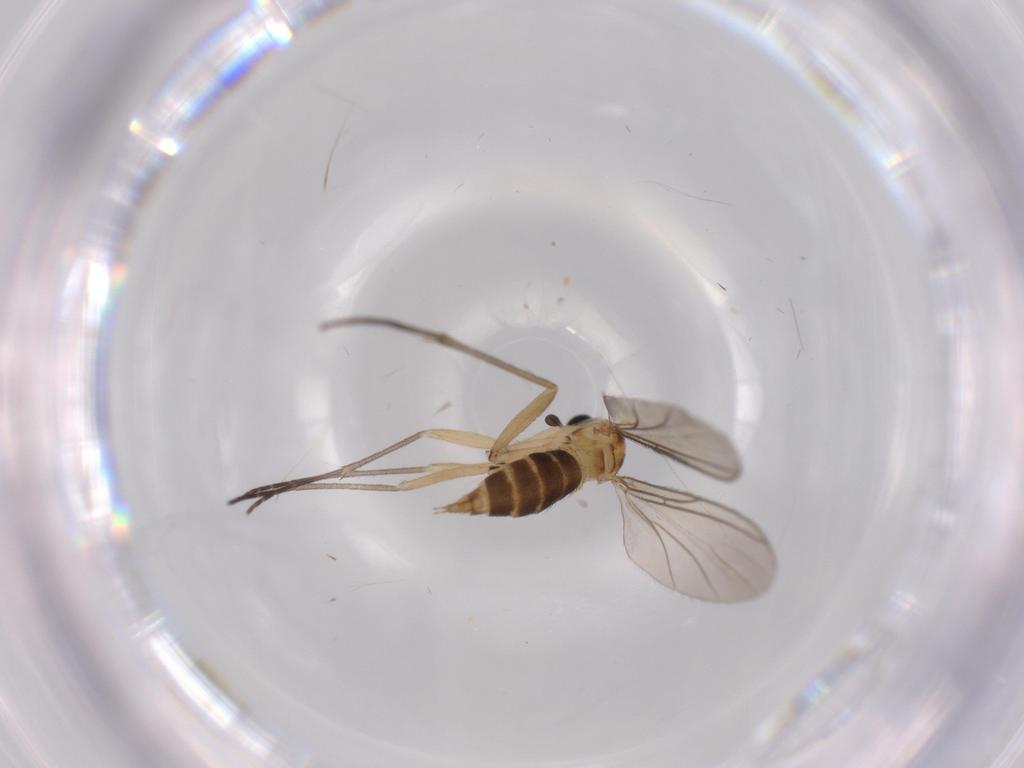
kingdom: Animalia
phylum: Arthropoda
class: Insecta
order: Diptera
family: Sciaridae
